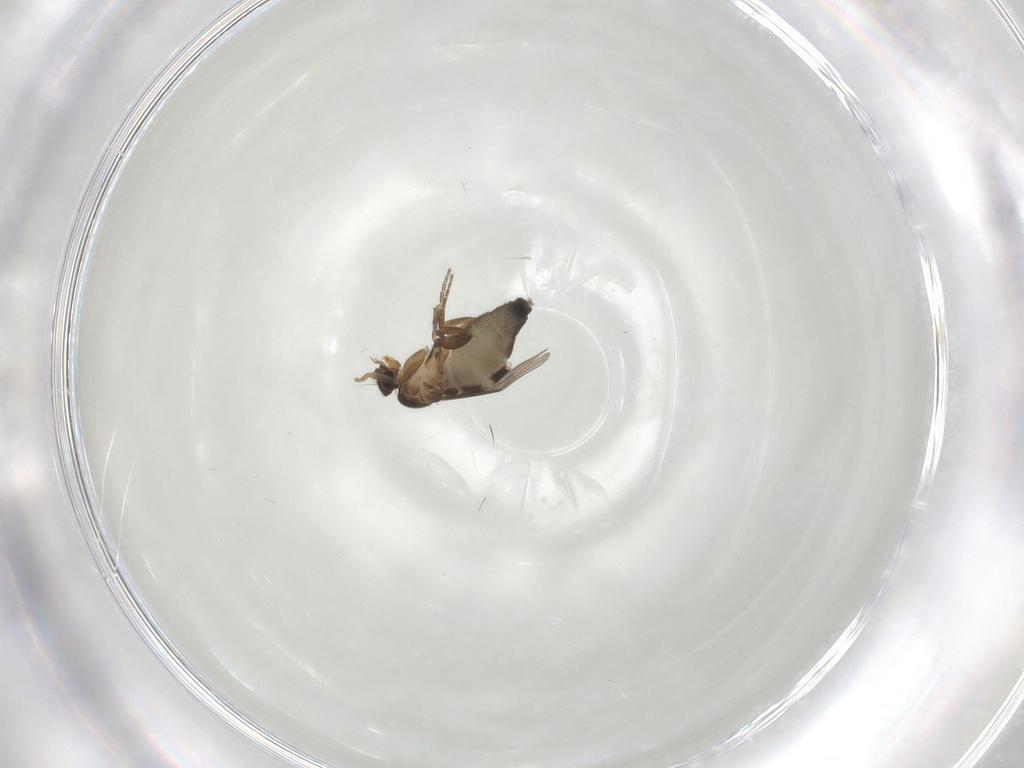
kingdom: Animalia
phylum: Arthropoda
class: Insecta
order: Diptera
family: Phoridae
